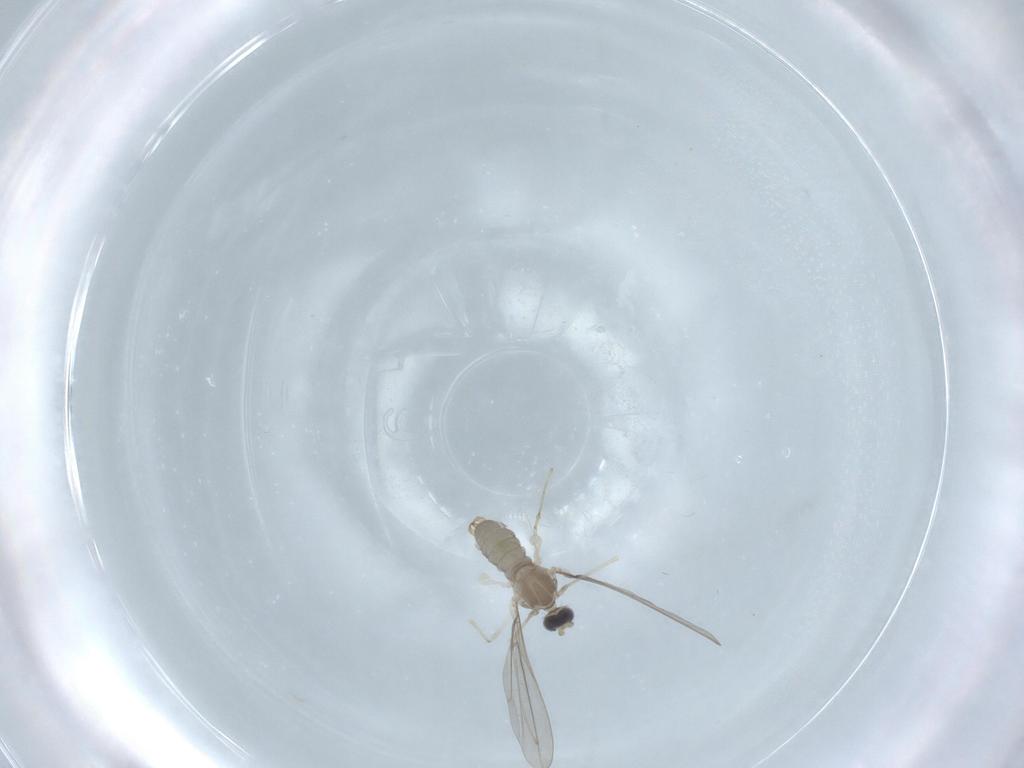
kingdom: Animalia
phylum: Arthropoda
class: Insecta
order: Diptera
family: Cecidomyiidae
